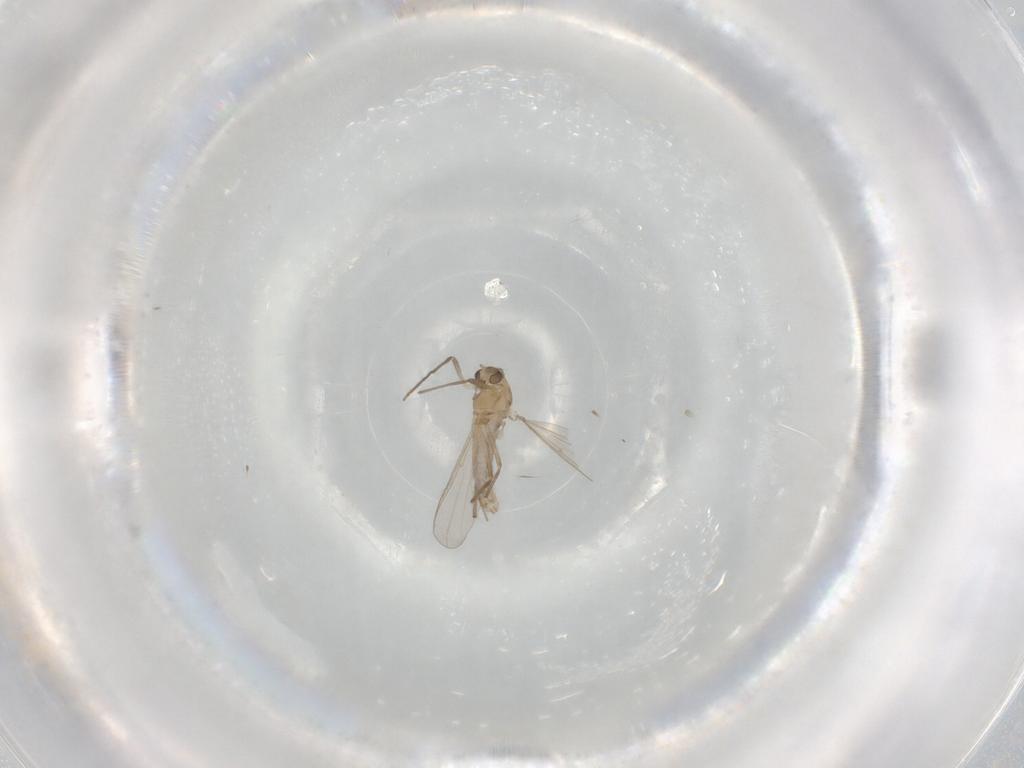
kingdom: Animalia
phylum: Arthropoda
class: Insecta
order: Diptera
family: Chironomidae
